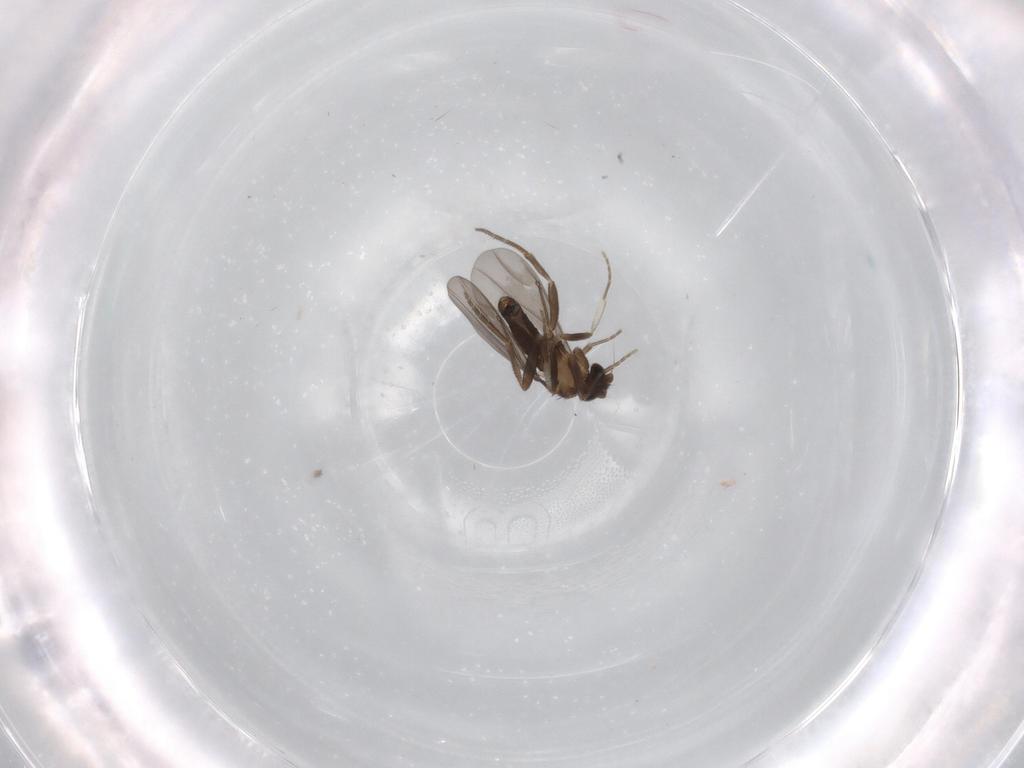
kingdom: Animalia
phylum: Arthropoda
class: Insecta
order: Diptera
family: Phoridae
